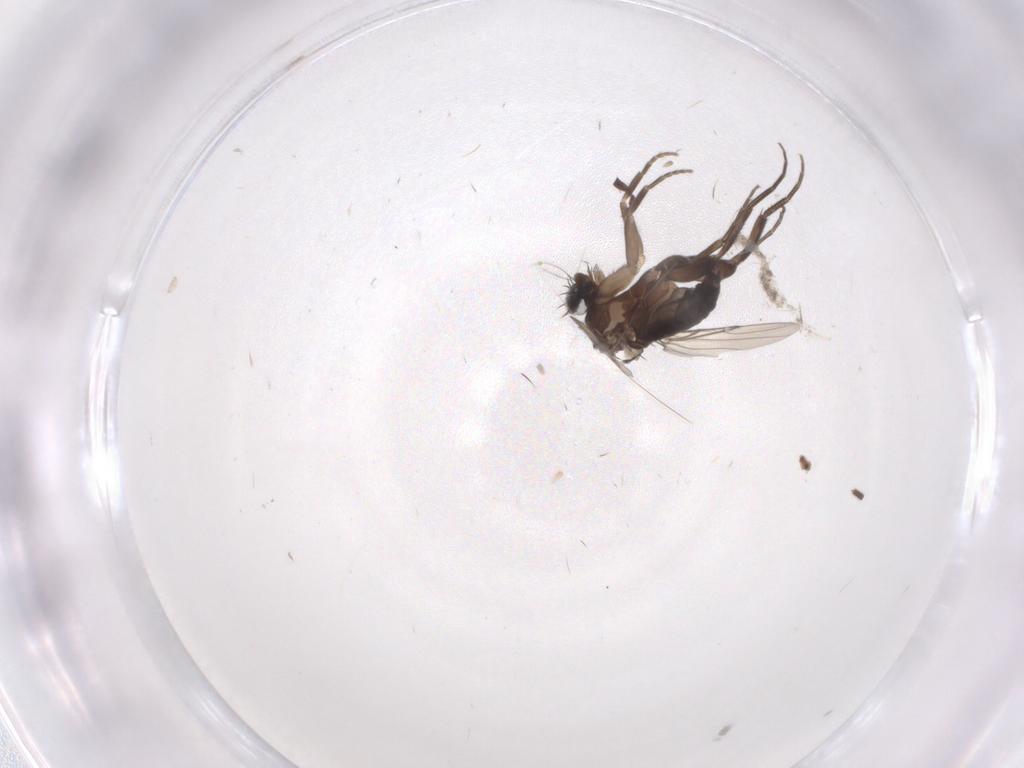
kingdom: Animalia
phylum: Arthropoda
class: Insecta
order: Diptera
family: Phoridae
